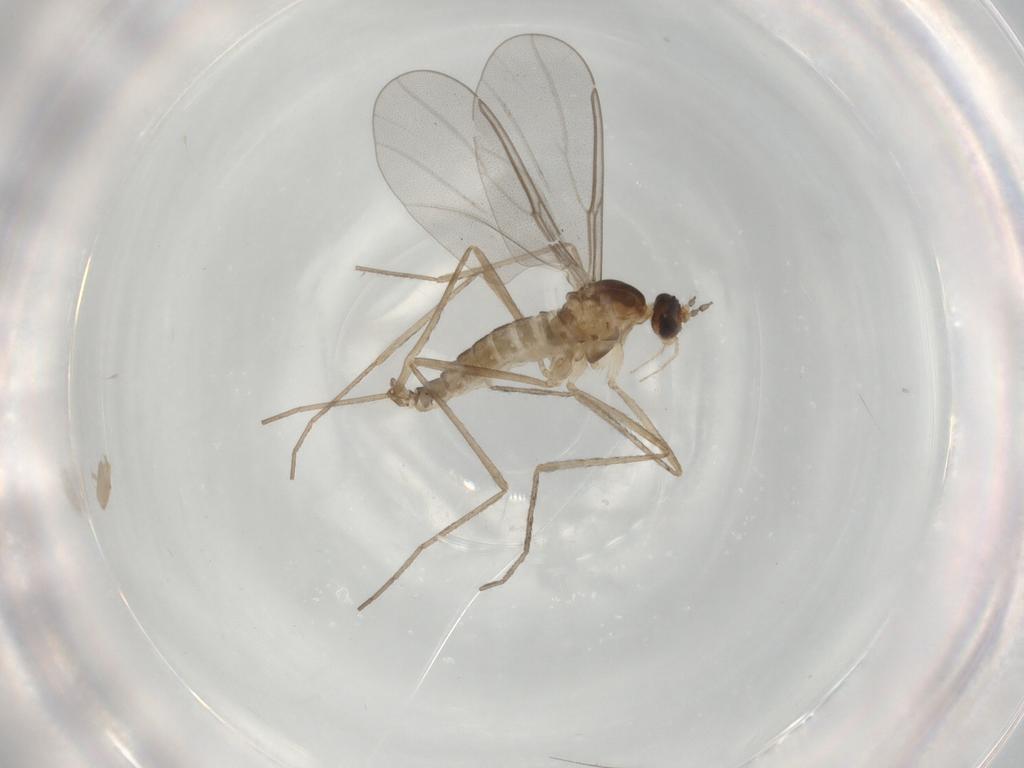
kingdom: Animalia
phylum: Arthropoda
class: Insecta
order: Diptera
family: Cecidomyiidae
